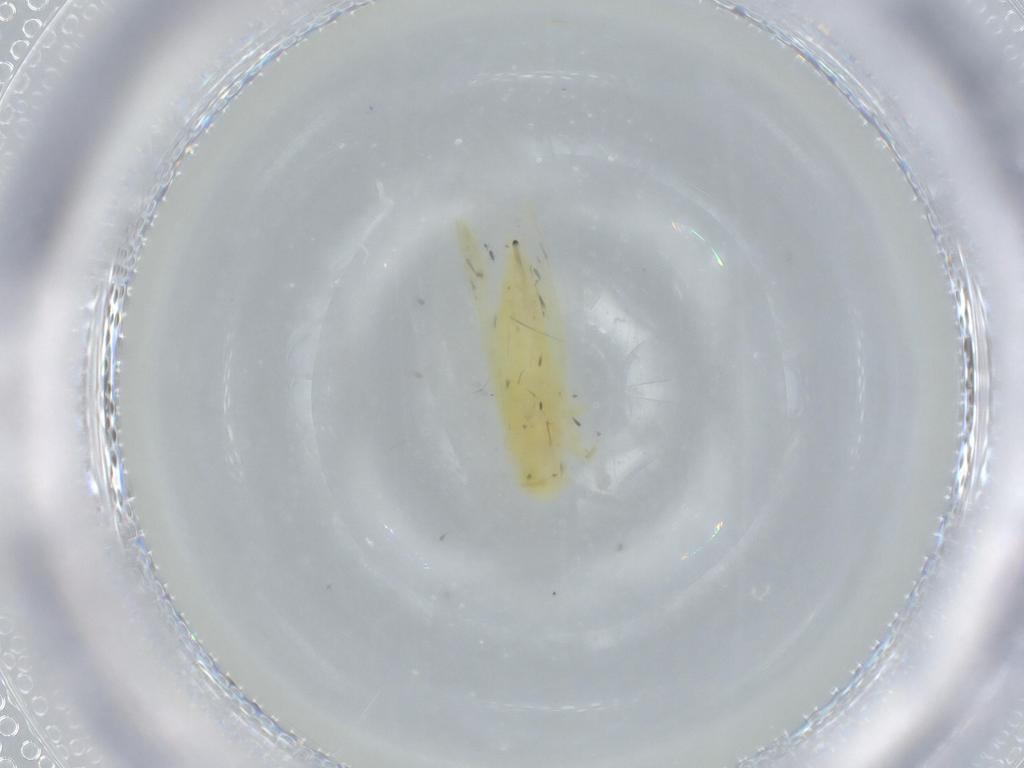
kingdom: Animalia
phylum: Arthropoda
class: Insecta
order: Hemiptera
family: Cicadellidae
